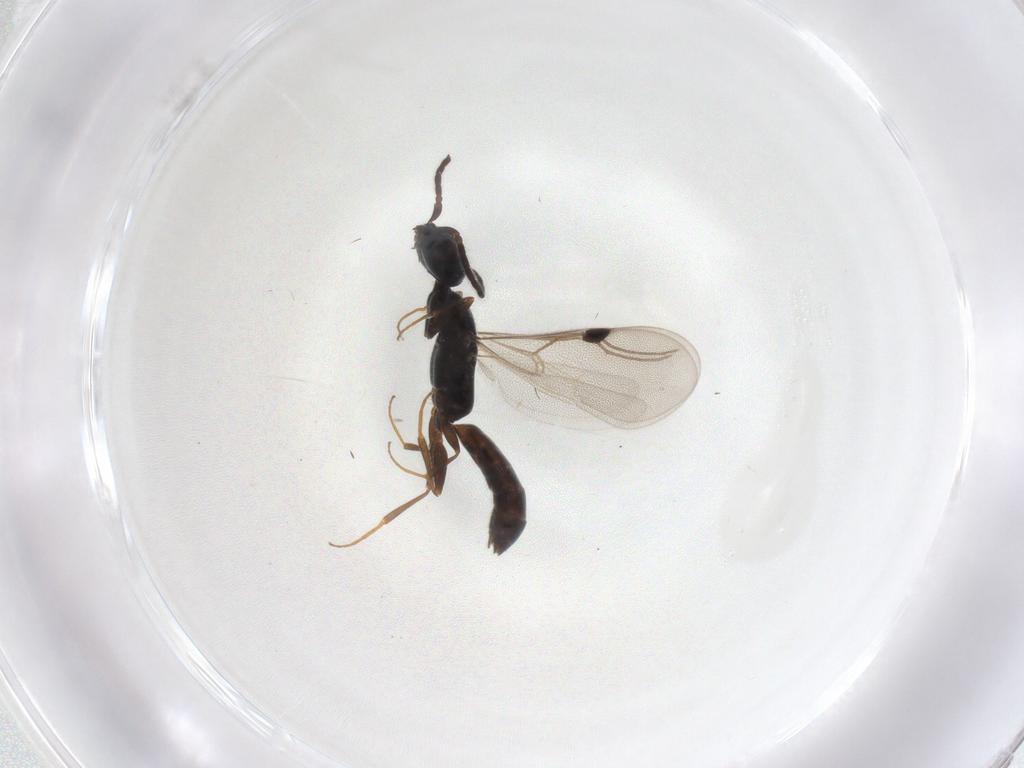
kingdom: Animalia
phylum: Arthropoda
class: Insecta
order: Hymenoptera
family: Bethylidae
